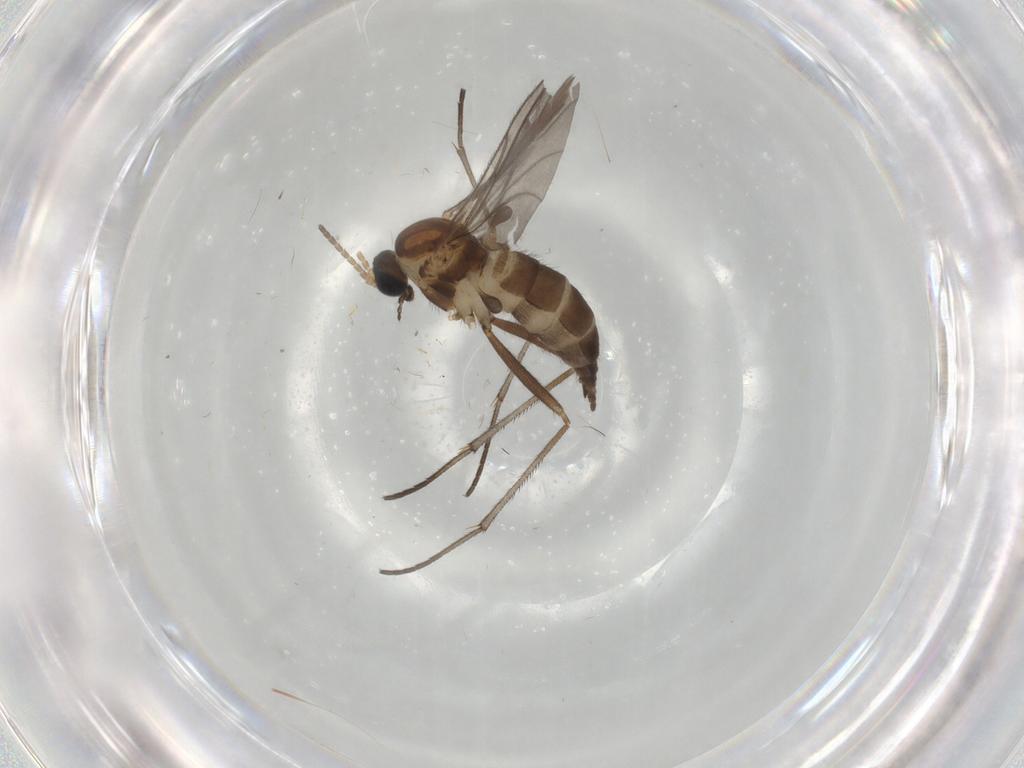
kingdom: Animalia
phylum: Arthropoda
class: Insecta
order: Diptera
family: Sciaridae
